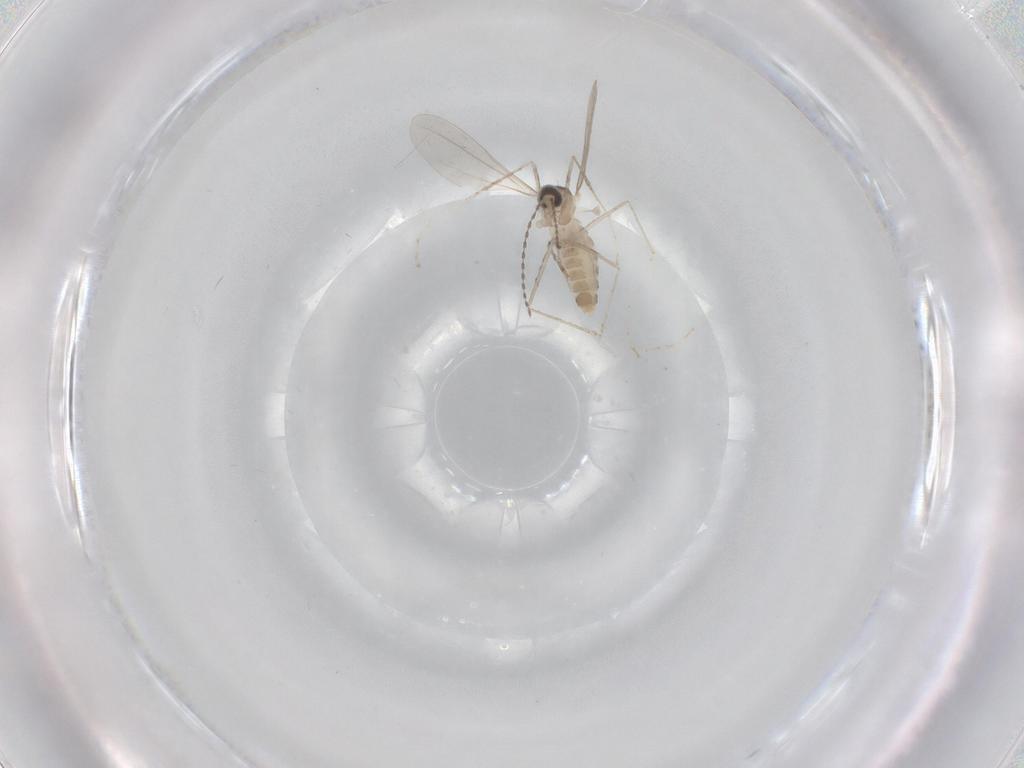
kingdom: Animalia
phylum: Arthropoda
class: Insecta
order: Diptera
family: Cecidomyiidae
